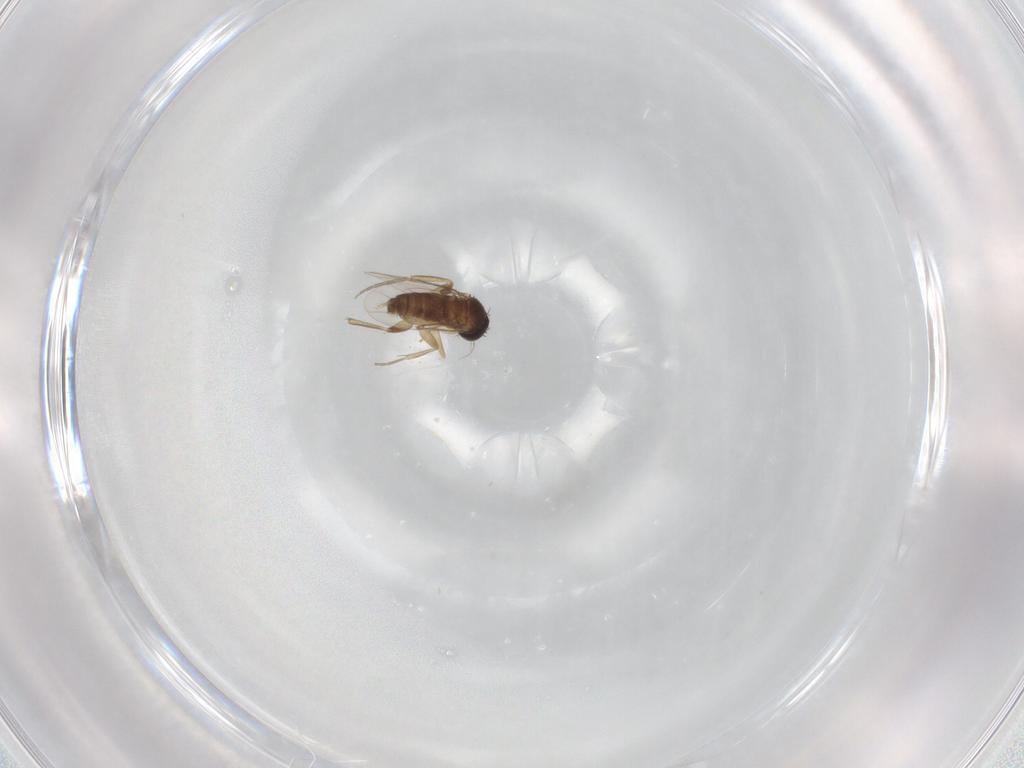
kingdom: Animalia
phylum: Arthropoda
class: Insecta
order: Diptera
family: Phoridae
